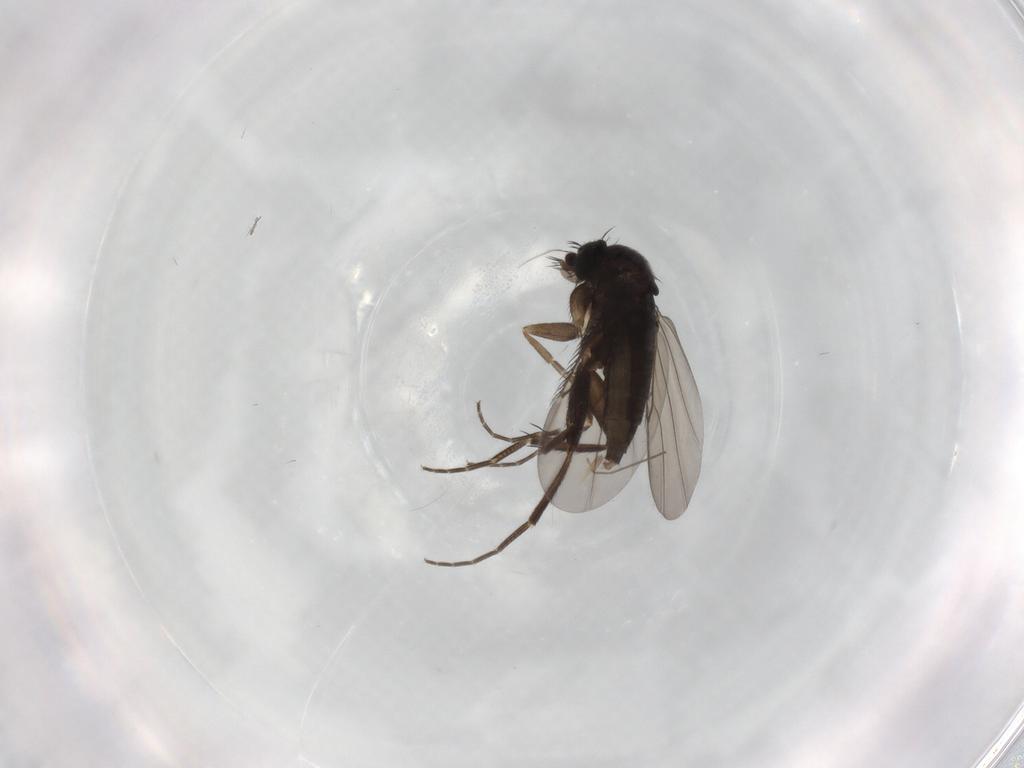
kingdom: Animalia
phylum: Arthropoda
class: Insecta
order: Diptera
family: Phoridae
